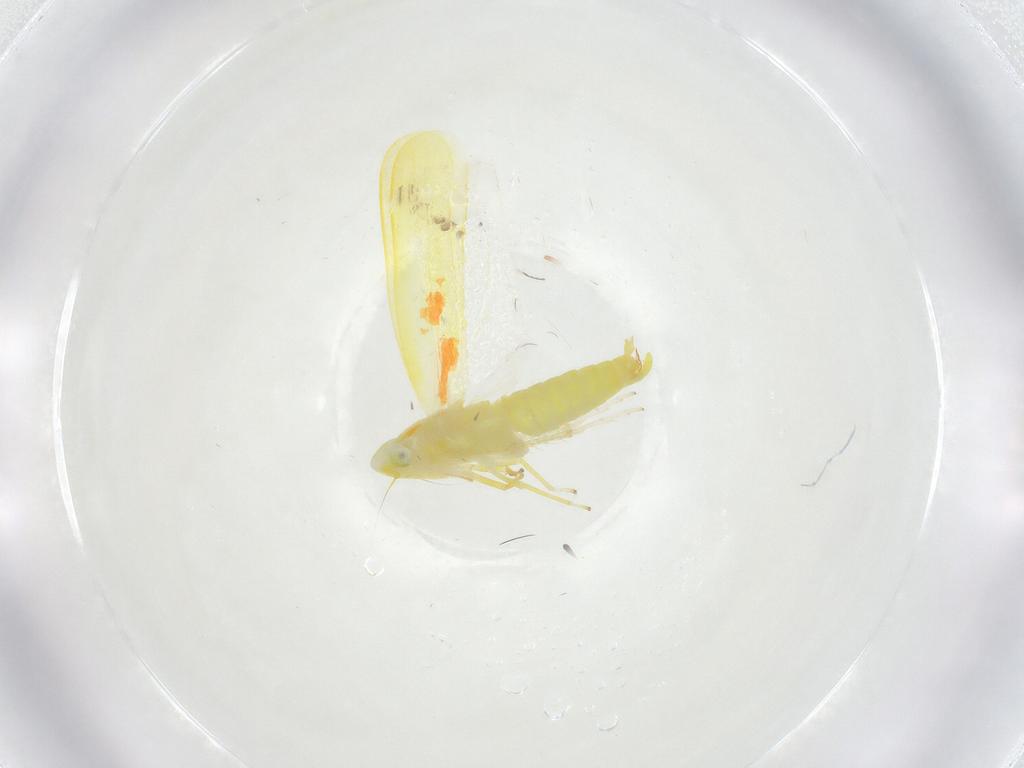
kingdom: Animalia
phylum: Arthropoda
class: Insecta
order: Hemiptera
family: Cicadellidae
